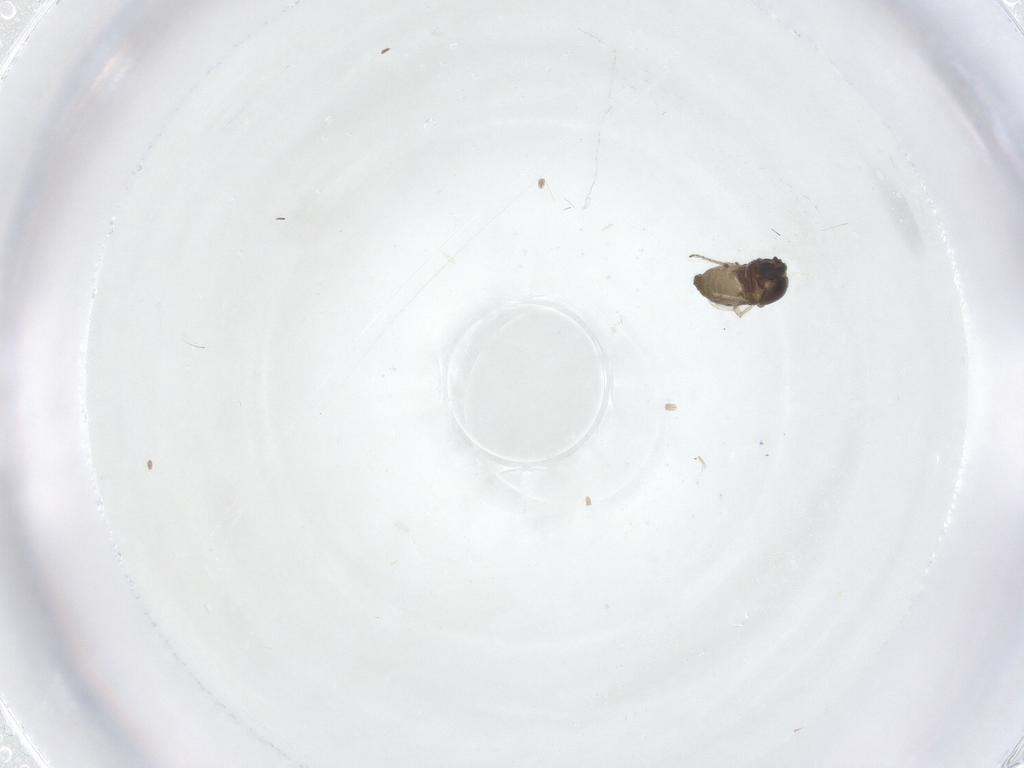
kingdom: Animalia
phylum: Arthropoda
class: Insecta
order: Diptera
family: Ceratopogonidae
